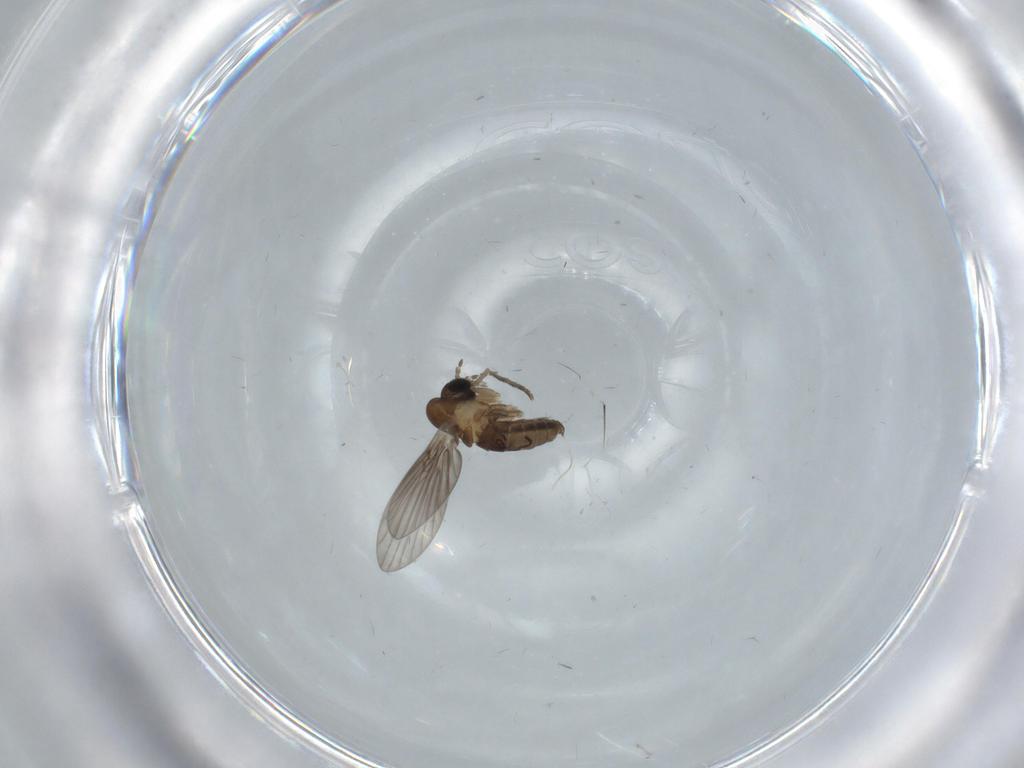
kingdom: Animalia
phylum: Arthropoda
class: Insecta
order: Diptera
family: Psychodidae
